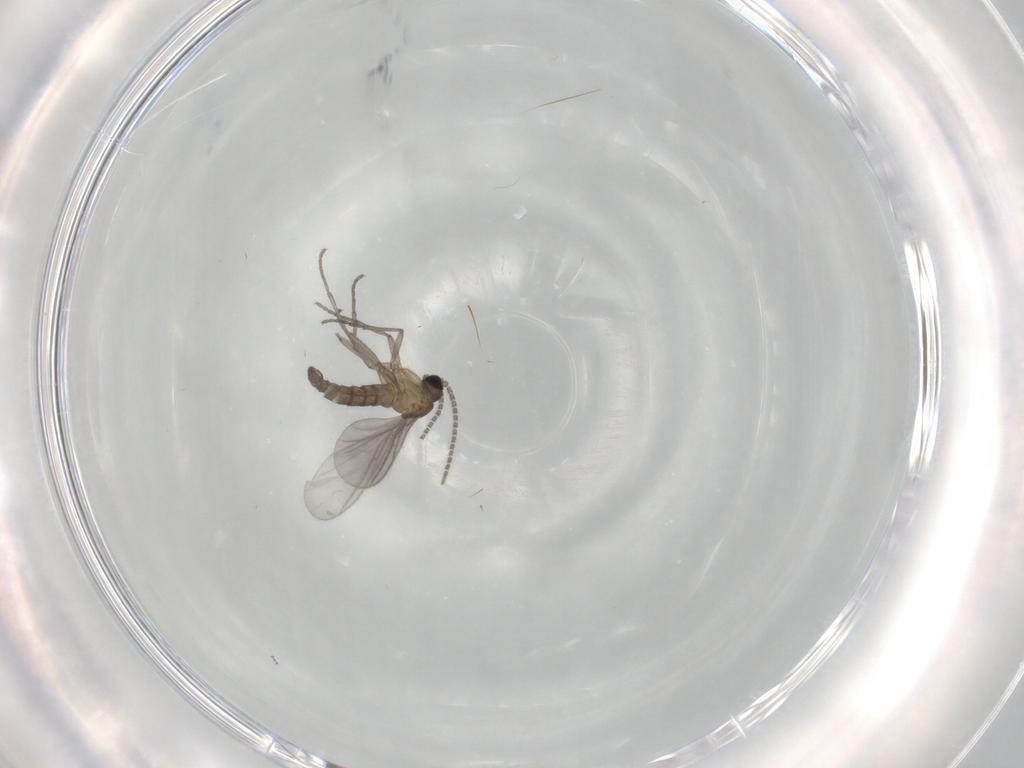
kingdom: Animalia
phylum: Arthropoda
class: Insecta
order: Diptera
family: Sciaridae
